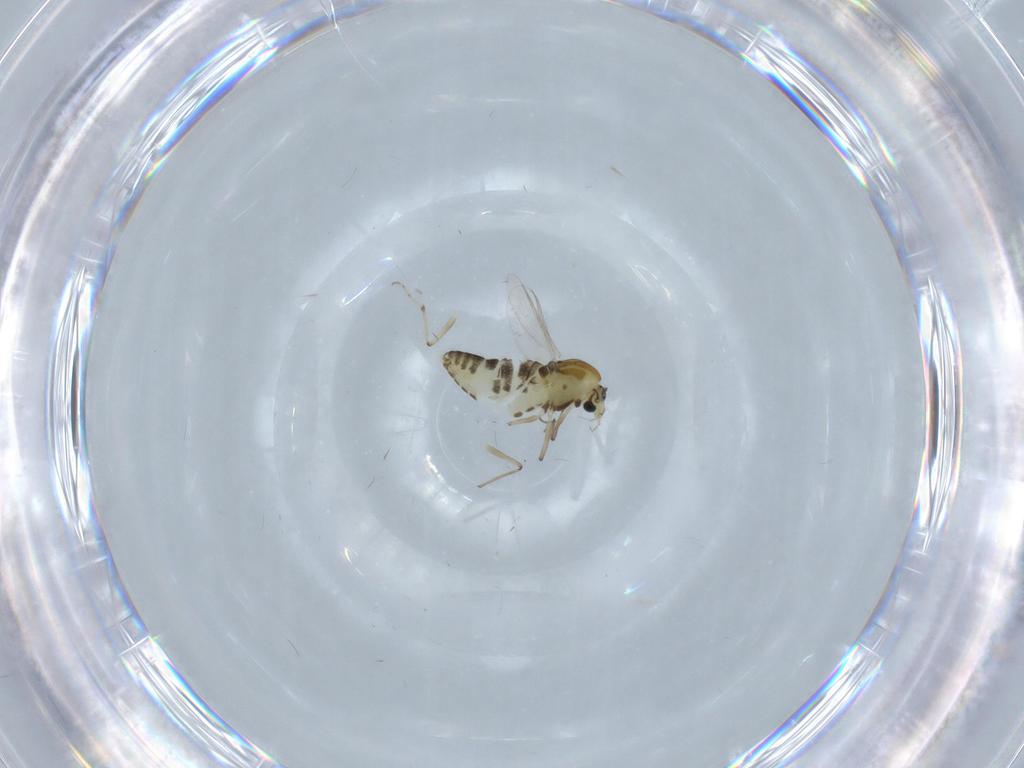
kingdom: Animalia
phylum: Arthropoda
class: Insecta
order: Diptera
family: Chironomidae
